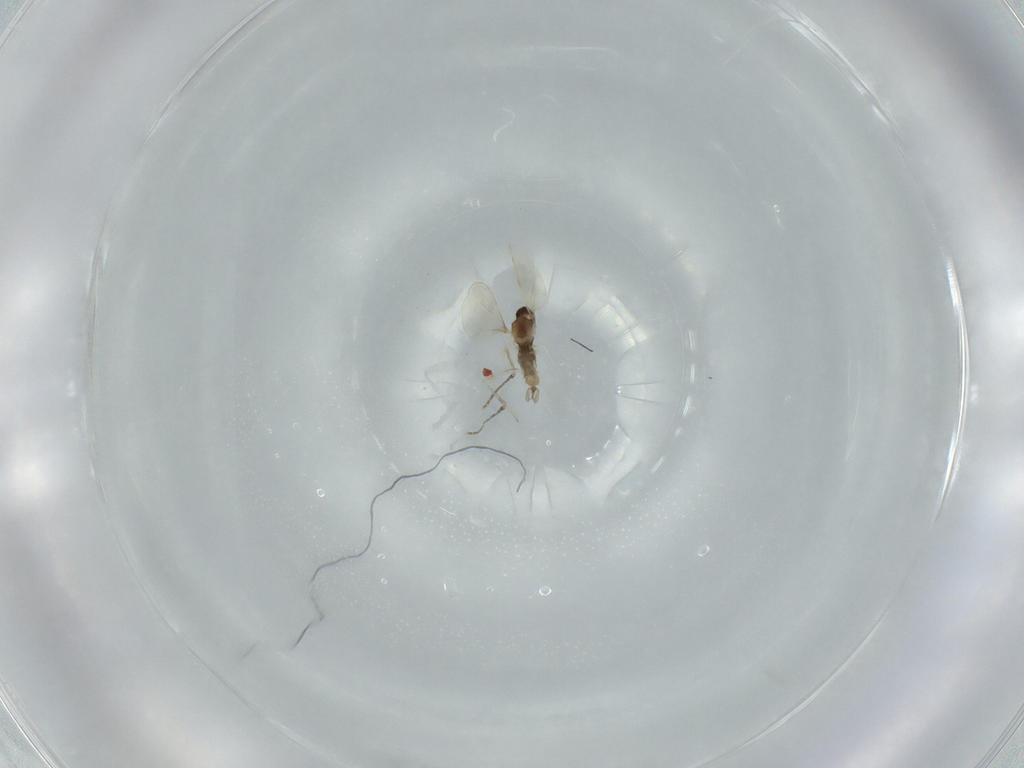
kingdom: Animalia
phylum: Arthropoda
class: Insecta
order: Diptera
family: Cecidomyiidae
